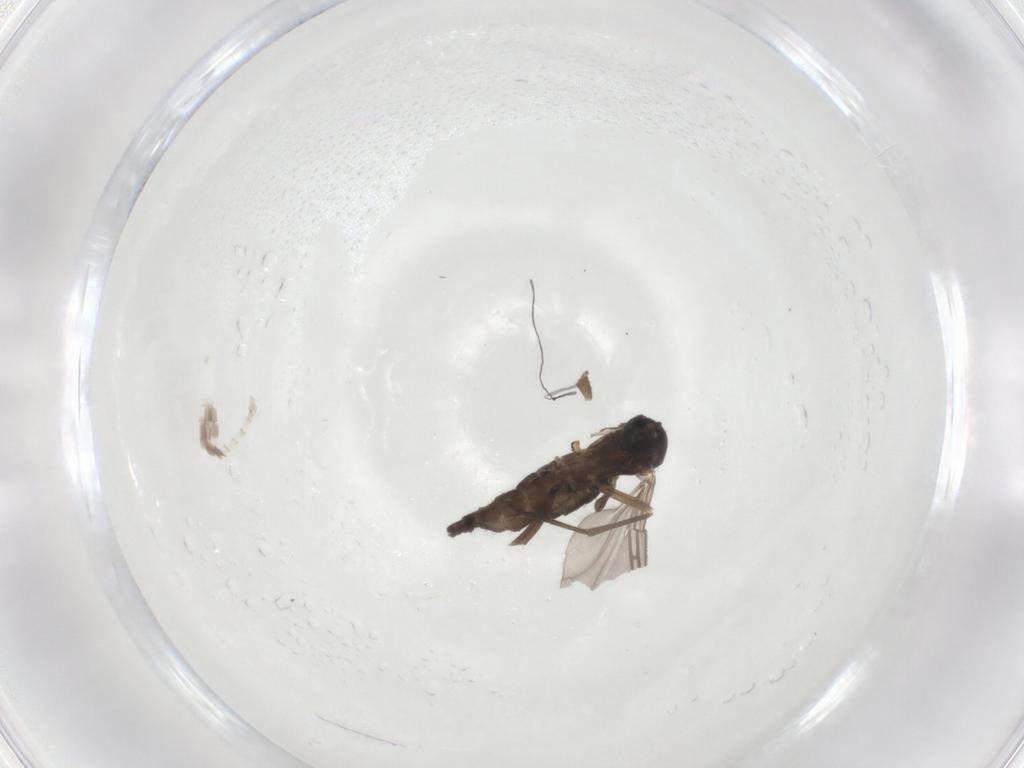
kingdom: Animalia
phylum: Arthropoda
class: Insecta
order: Diptera
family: Sciaridae
